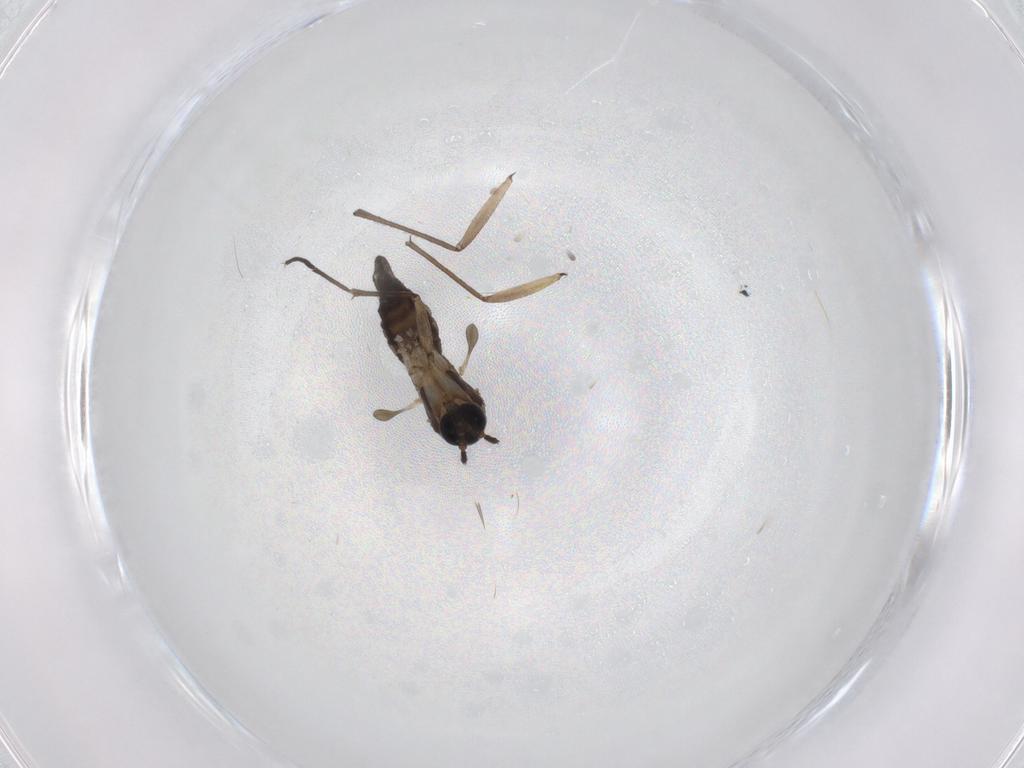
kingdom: Animalia
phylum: Arthropoda
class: Insecta
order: Diptera
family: Sciaridae
